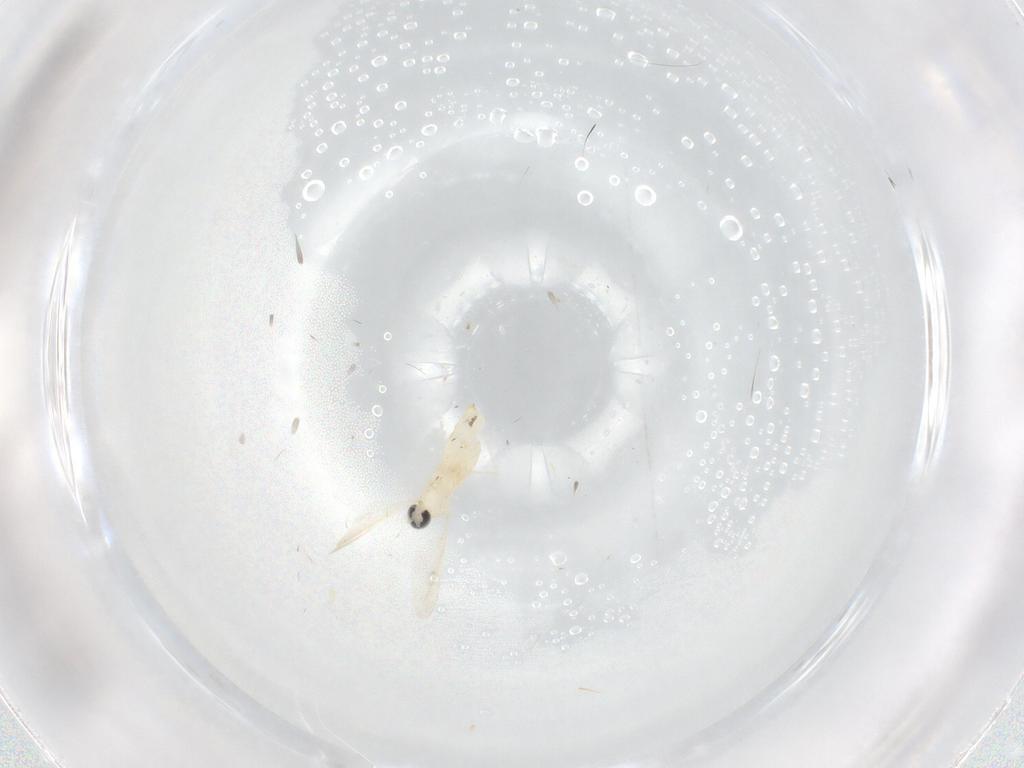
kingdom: Animalia
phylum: Arthropoda
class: Insecta
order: Diptera
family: Cecidomyiidae
